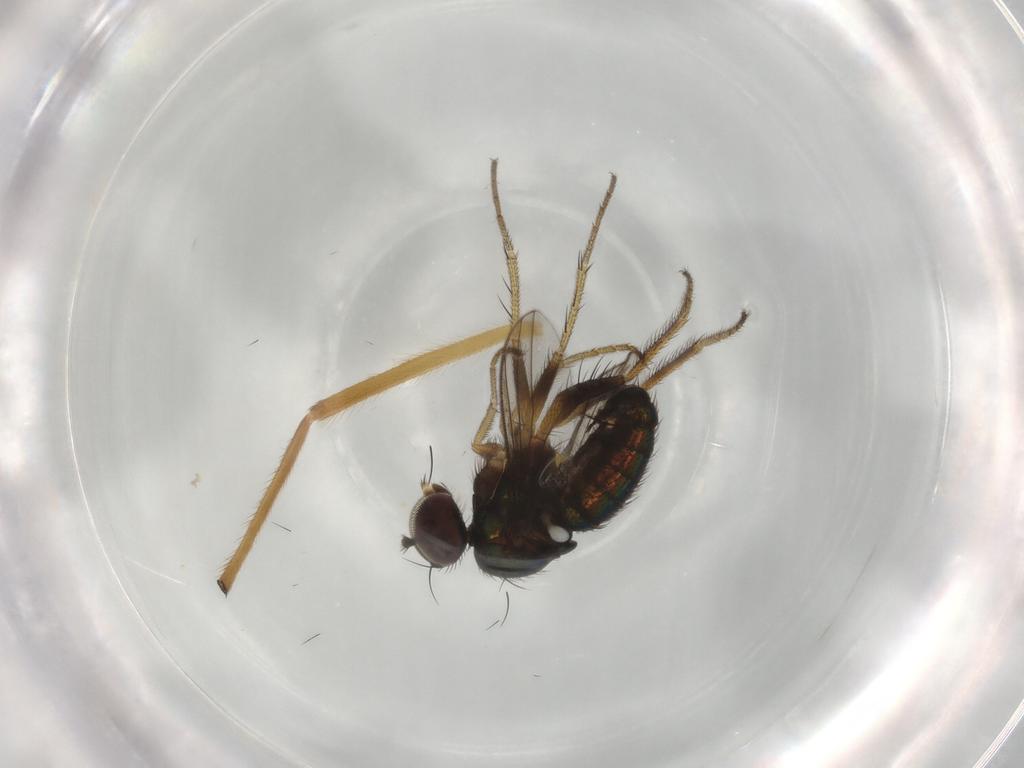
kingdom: Animalia
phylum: Arthropoda
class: Insecta
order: Diptera
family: Dolichopodidae
